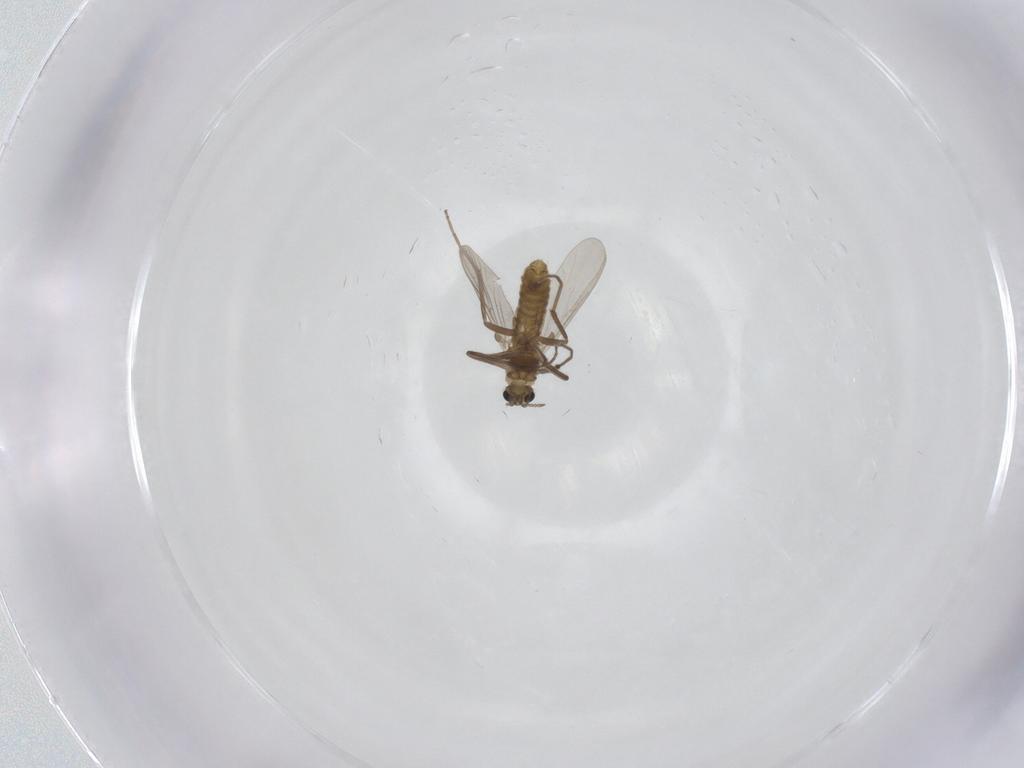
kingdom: Animalia
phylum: Arthropoda
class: Insecta
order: Diptera
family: Chironomidae
